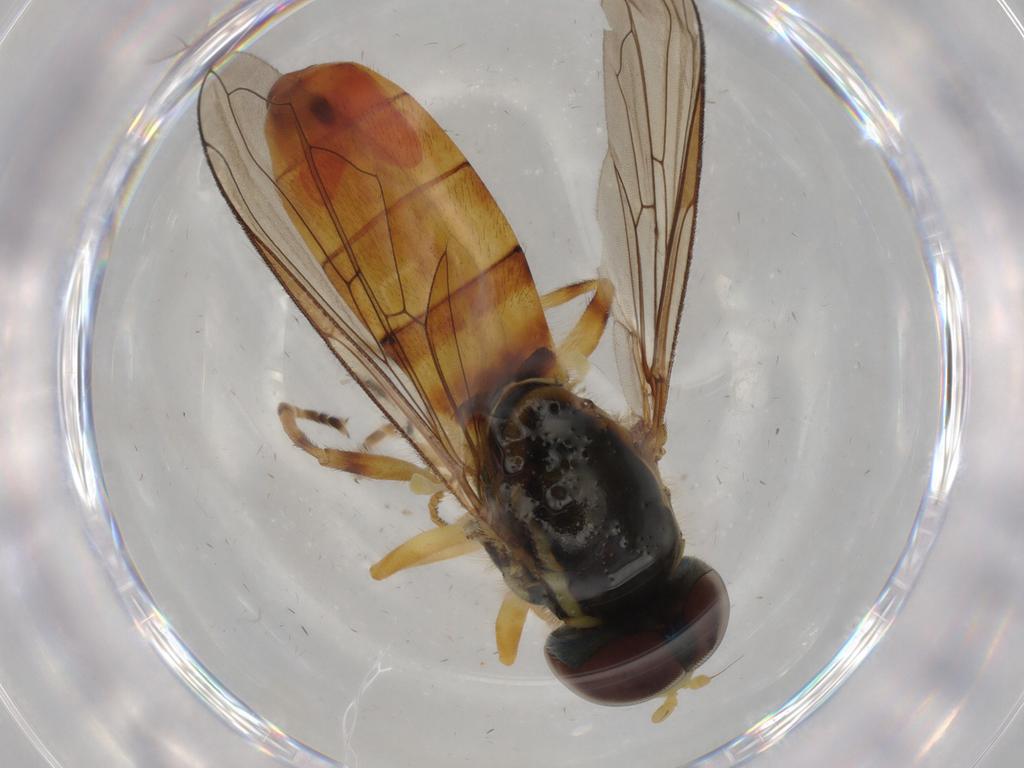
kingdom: Animalia
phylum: Arthropoda
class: Insecta
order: Diptera
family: Syrphidae
